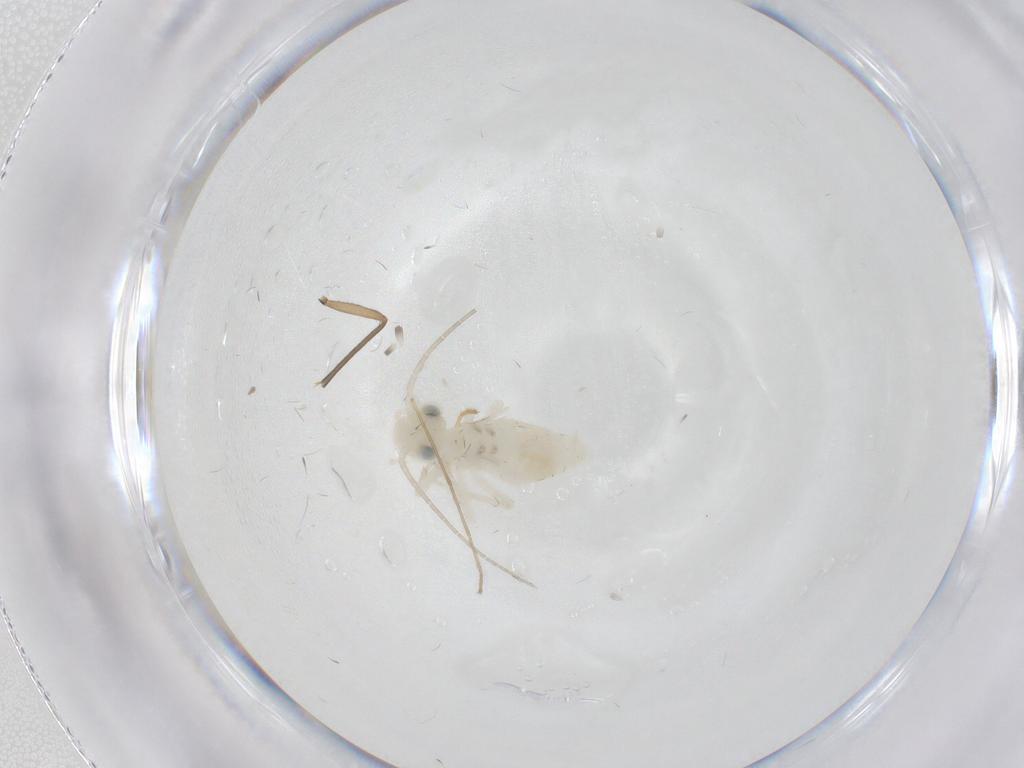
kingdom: Animalia
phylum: Arthropoda
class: Insecta
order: Psocodea
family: Caeciliusidae
